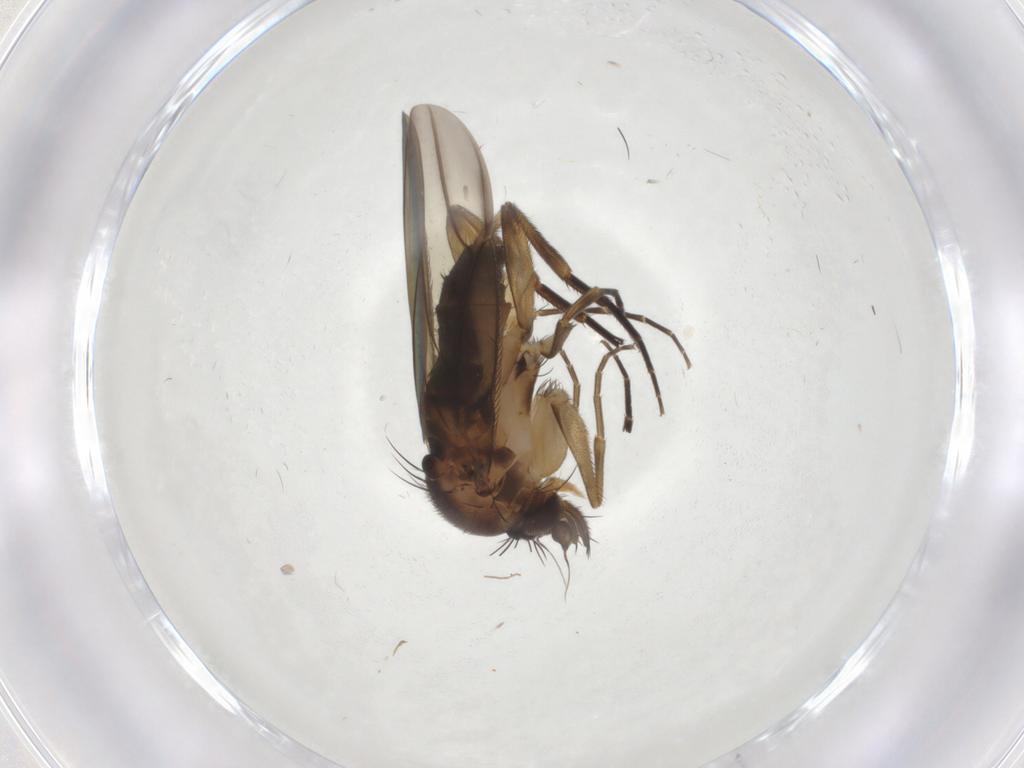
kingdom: Animalia
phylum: Arthropoda
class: Insecta
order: Diptera
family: Phoridae
